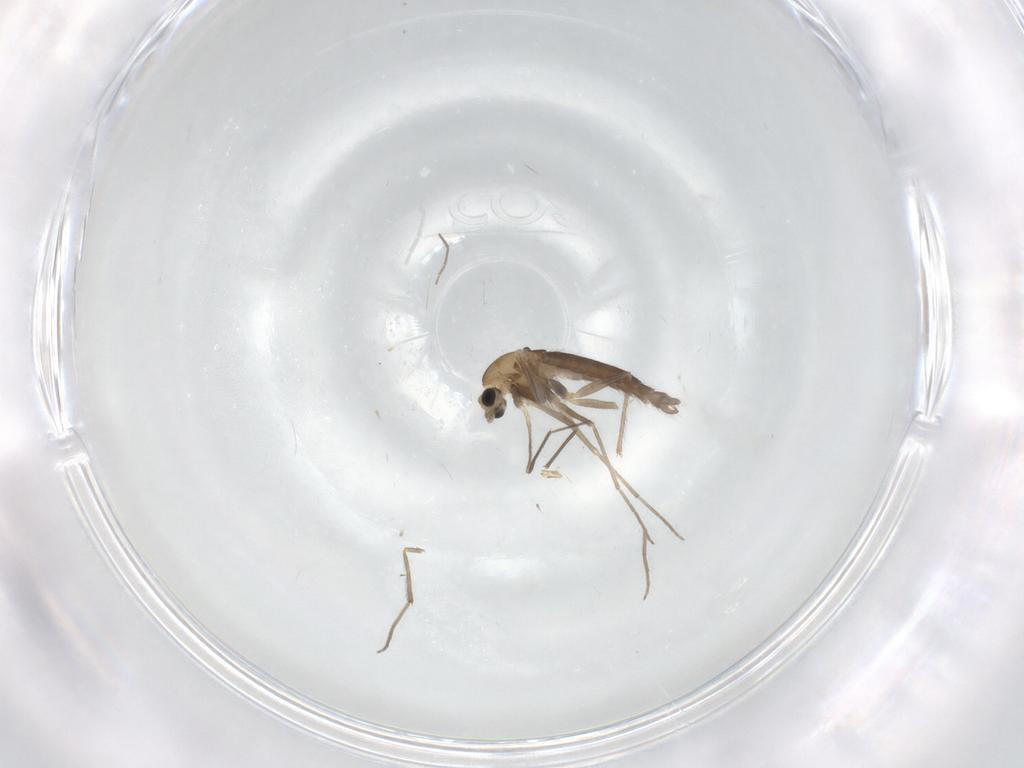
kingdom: Animalia
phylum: Arthropoda
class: Insecta
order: Diptera
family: Chironomidae
